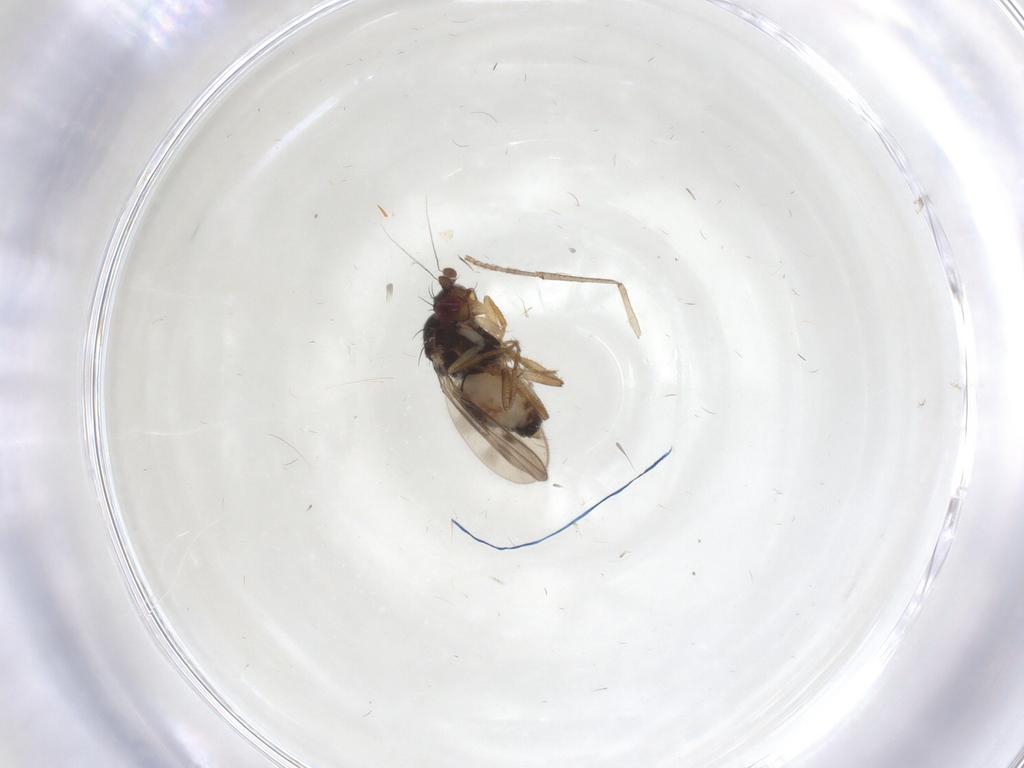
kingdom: Animalia
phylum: Arthropoda
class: Insecta
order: Diptera
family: Sphaeroceridae
